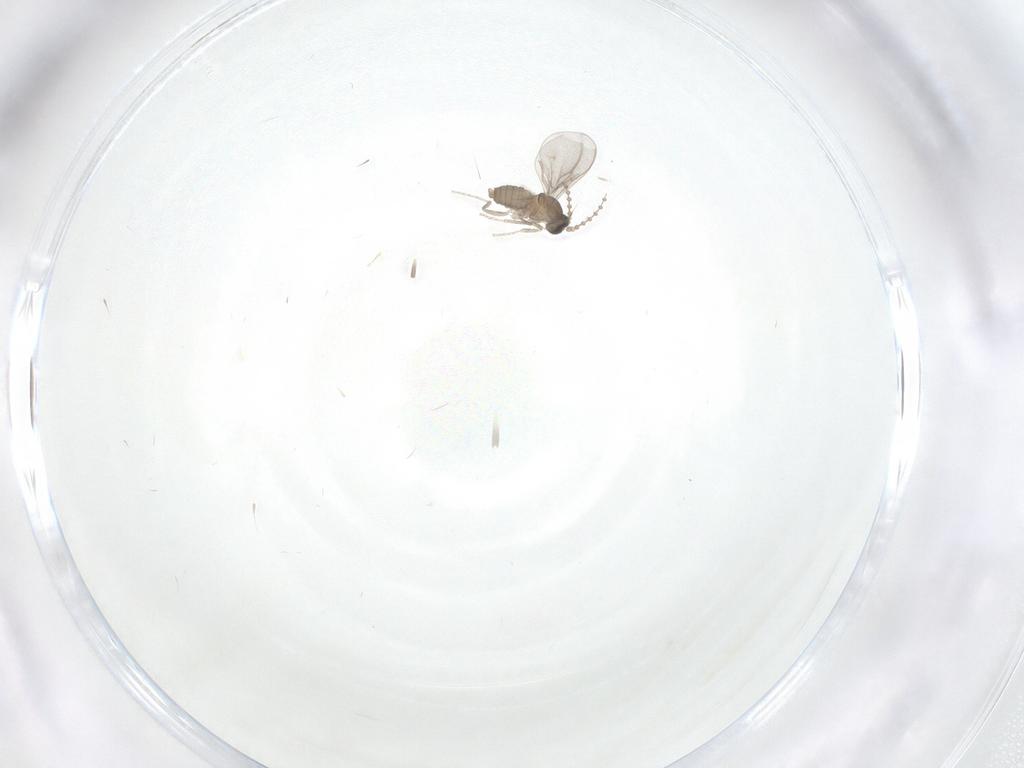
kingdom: Animalia
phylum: Arthropoda
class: Insecta
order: Diptera
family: Cecidomyiidae
